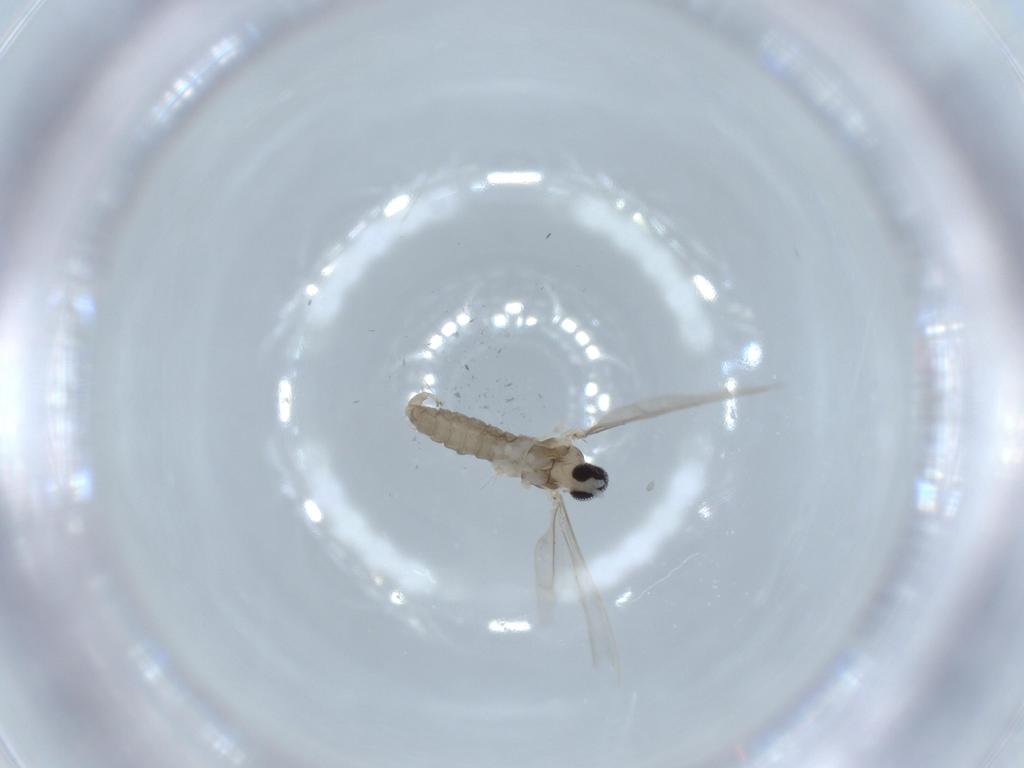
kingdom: Animalia
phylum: Arthropoda
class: Insecta
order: Diptera
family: Cecidomyiidae
